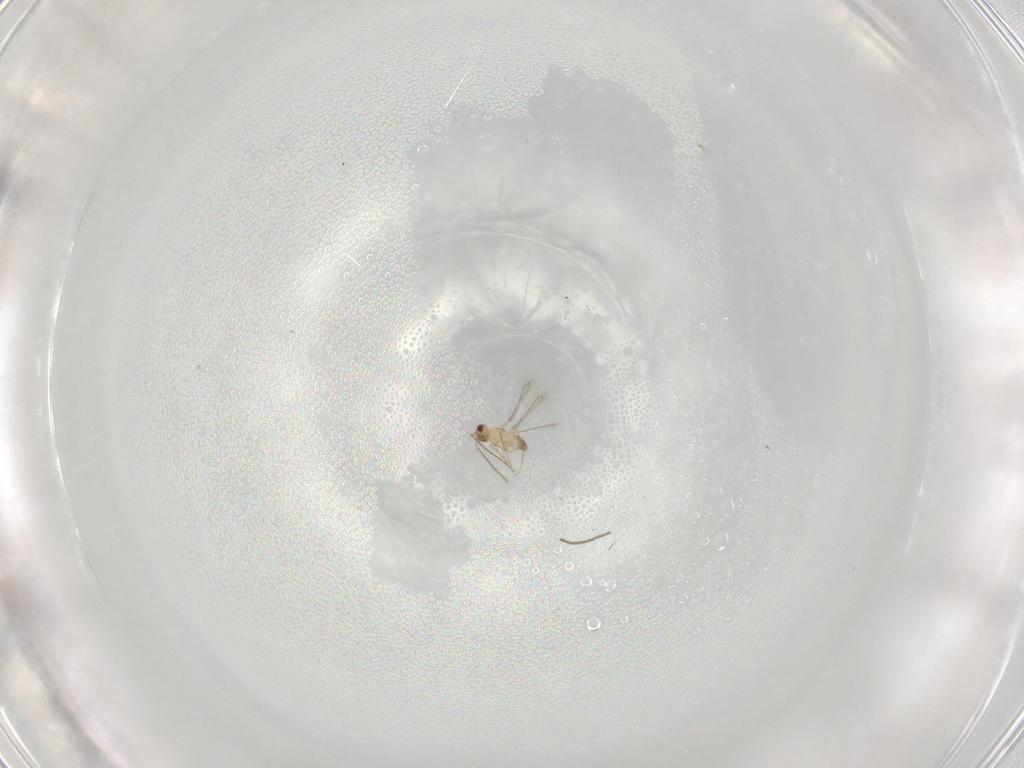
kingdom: Animalia
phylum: Arthropoda
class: Insecta
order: Hymenoptera
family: Mymaridae
